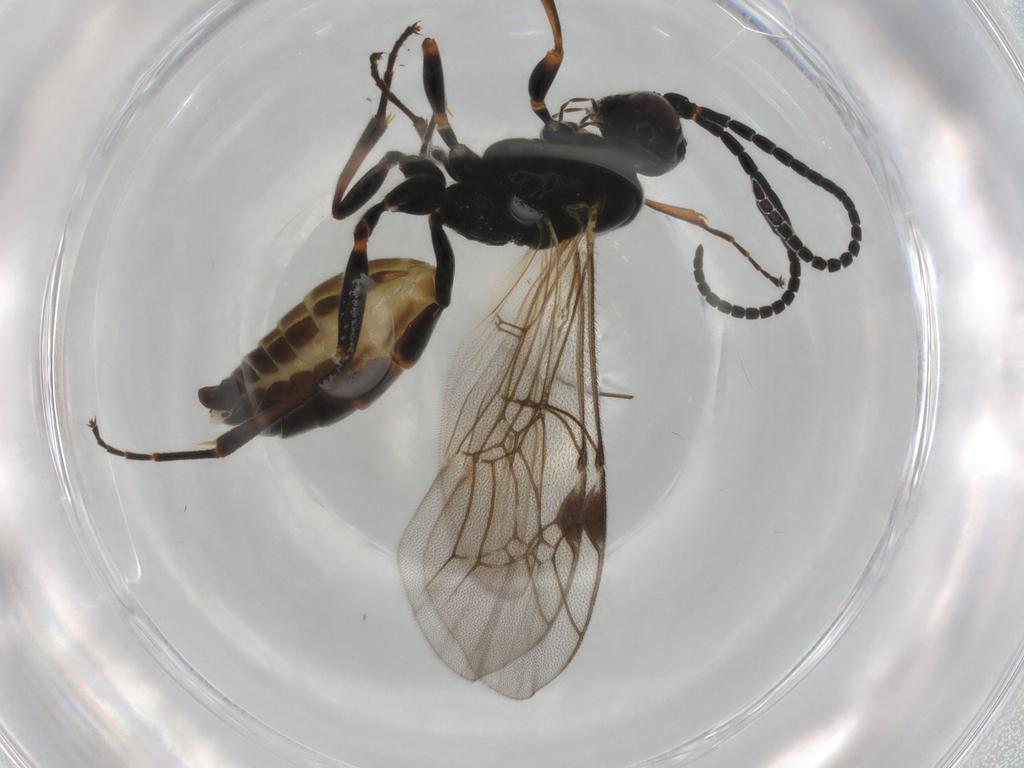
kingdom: Animalia
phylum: Arthropoda
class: Insecta
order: Hymenoptera
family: Ichneumonidae
